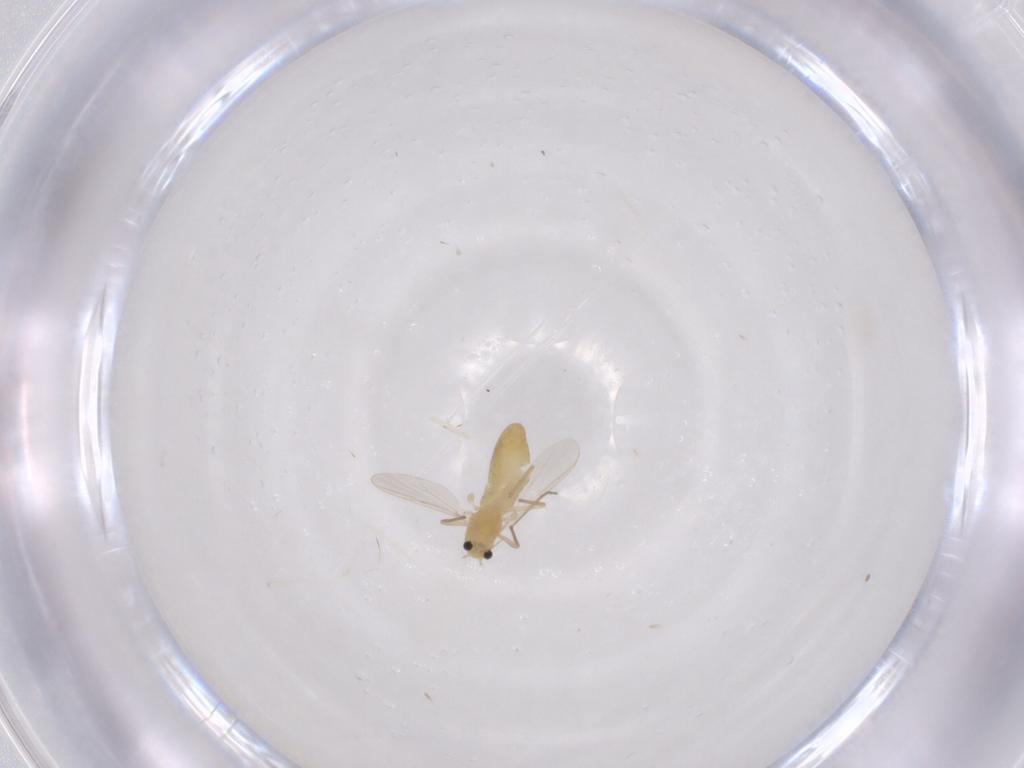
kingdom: Animalia
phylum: Arthropoda
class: Insecta
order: Diptera
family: Chironomidae
